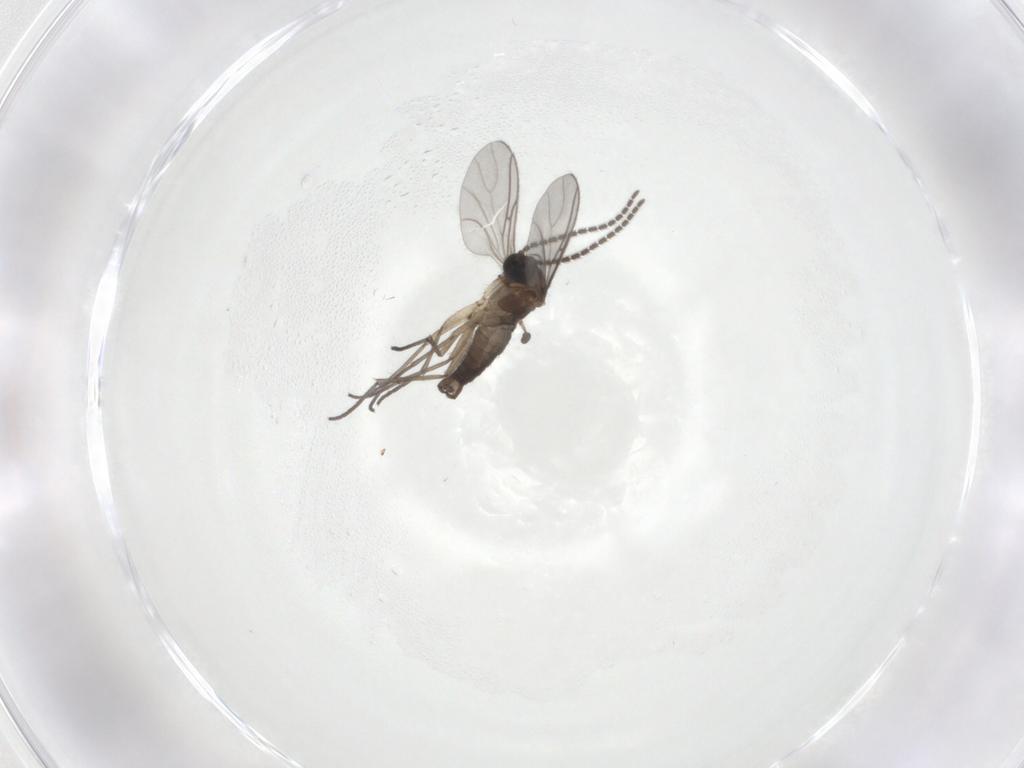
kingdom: Animalia
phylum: Arthropoda
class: Insecta
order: Diptera
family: Sciaridae
